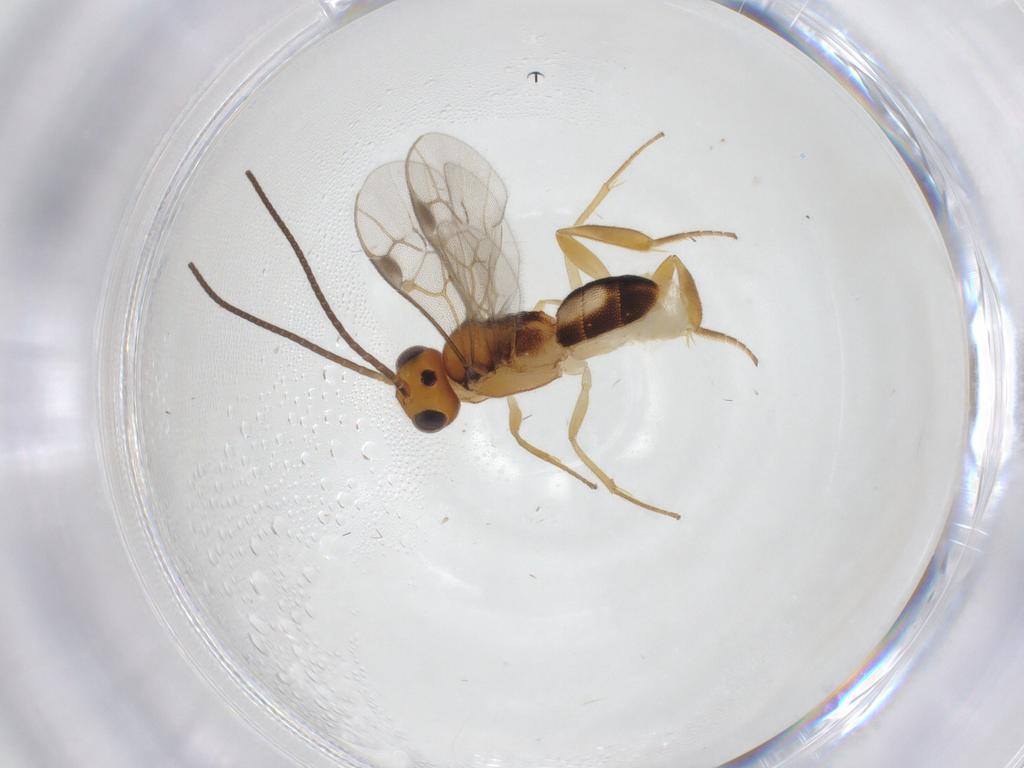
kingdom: Animalia
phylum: Arthropoda
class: Insecta
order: Hymenoptera
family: Braconidae
